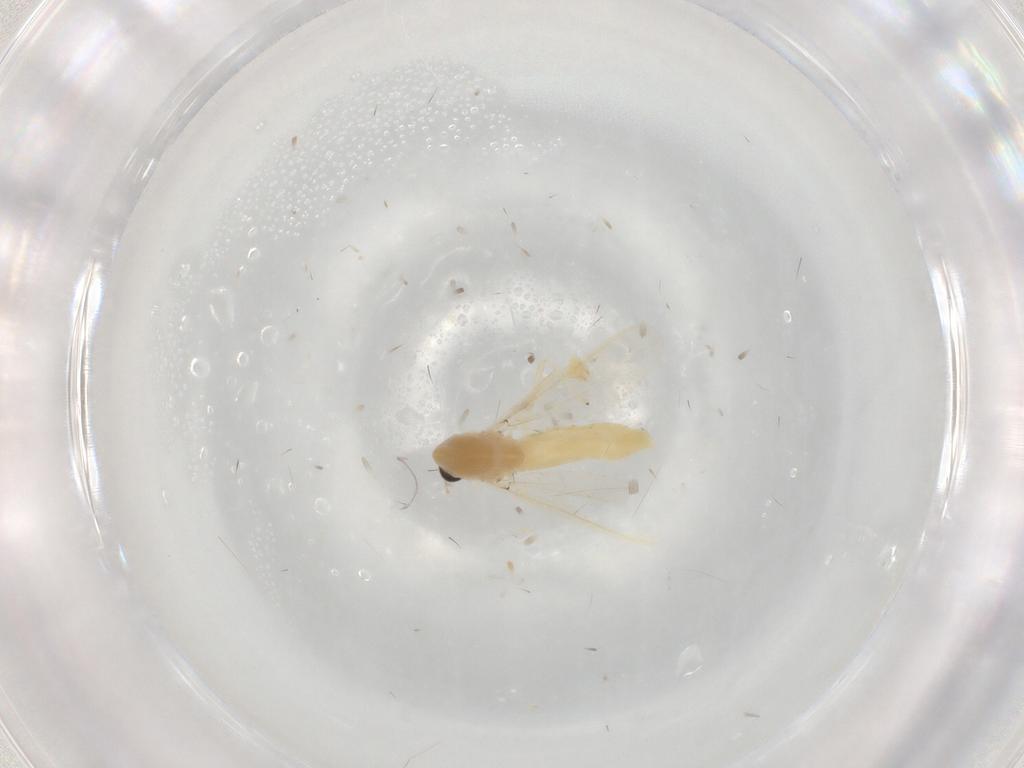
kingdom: Animalia
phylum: Arthropoda
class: Insecta
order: Diptera
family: Chironomidae
